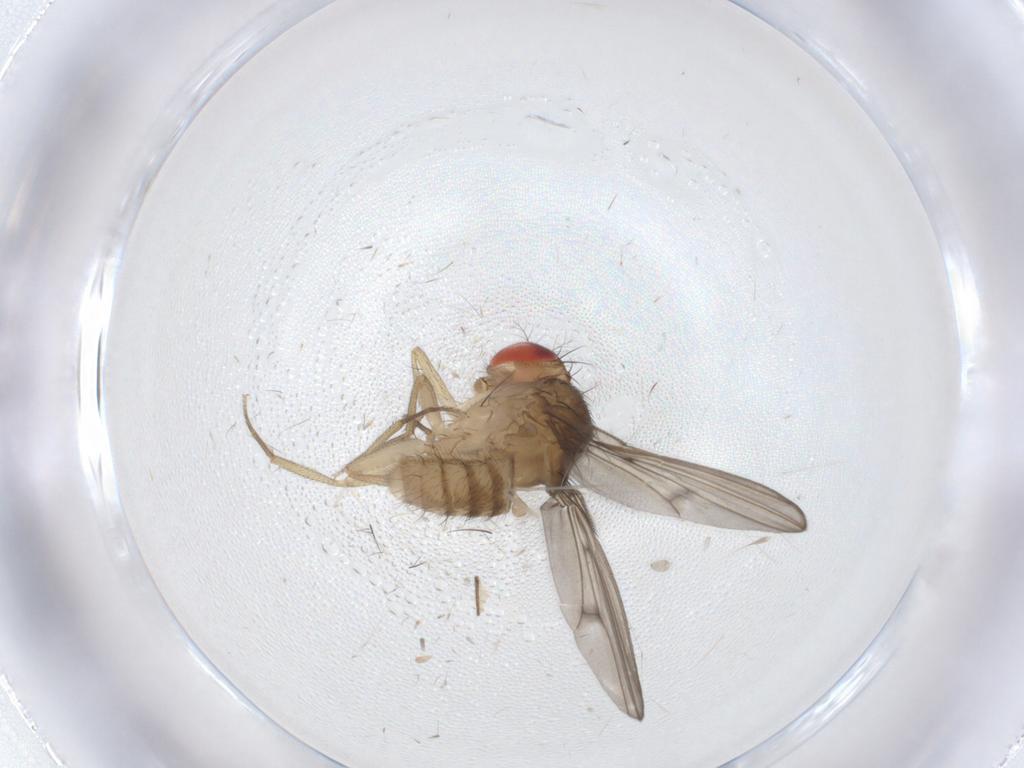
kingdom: Animalia
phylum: Arthropoda
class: Insecta
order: Diptera
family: Drosophilidae
